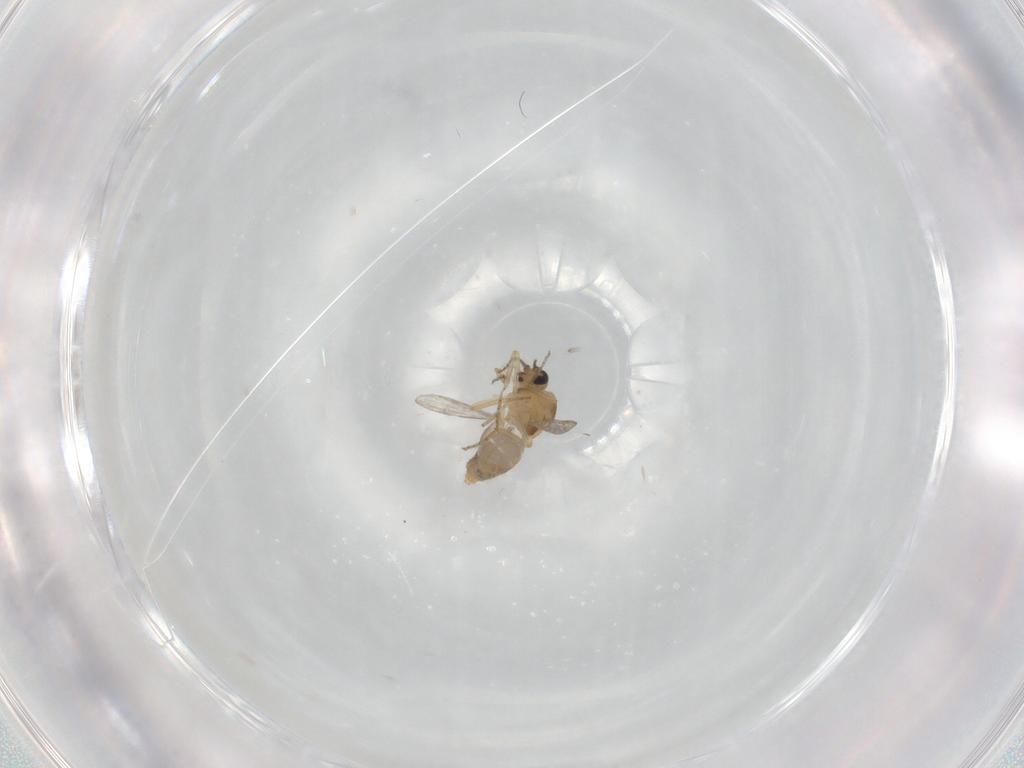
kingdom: Animalia
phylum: Arthropoda
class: Insecta
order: Diptera
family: Ceratopogonidae
